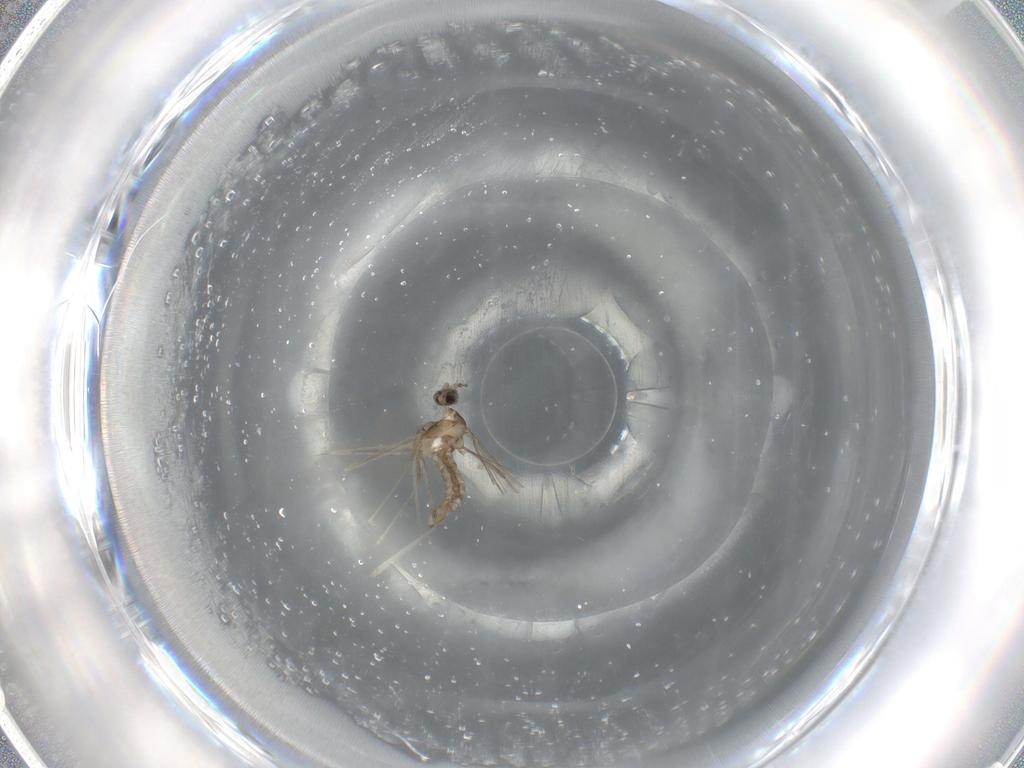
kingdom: Animalia
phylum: Arthropoda
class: Insecta
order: Diptera
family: Cecidomyiidae
